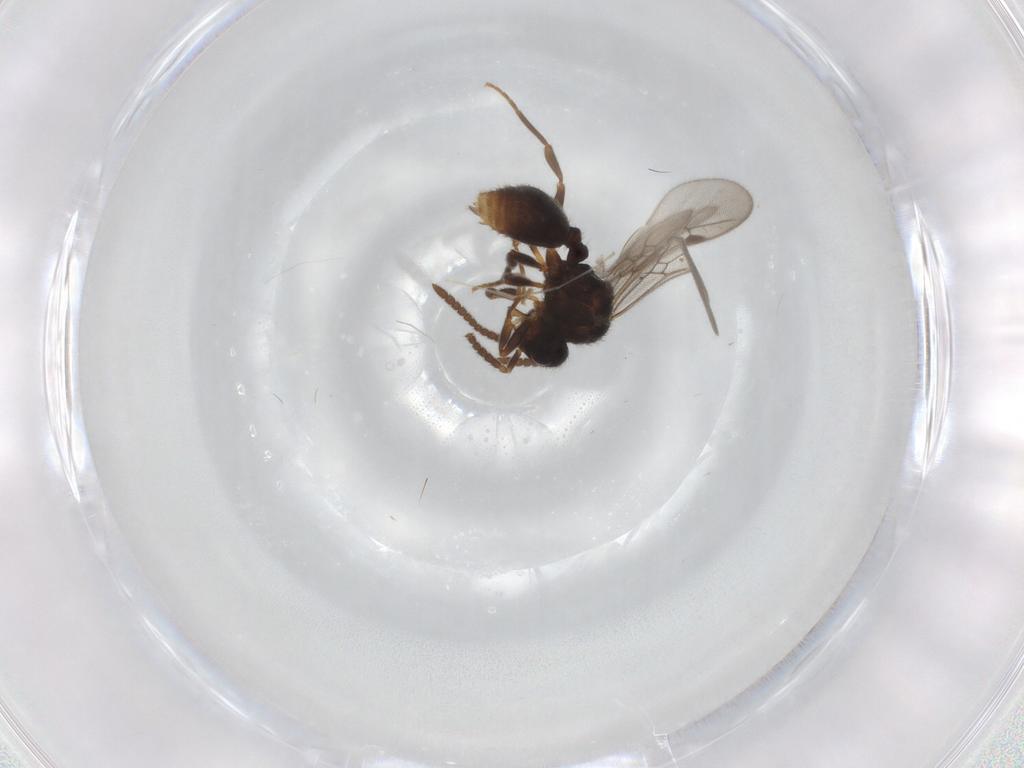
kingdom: Animalia
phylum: Arthropoda
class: Insecta
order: Hymenoptera
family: Formicidae
